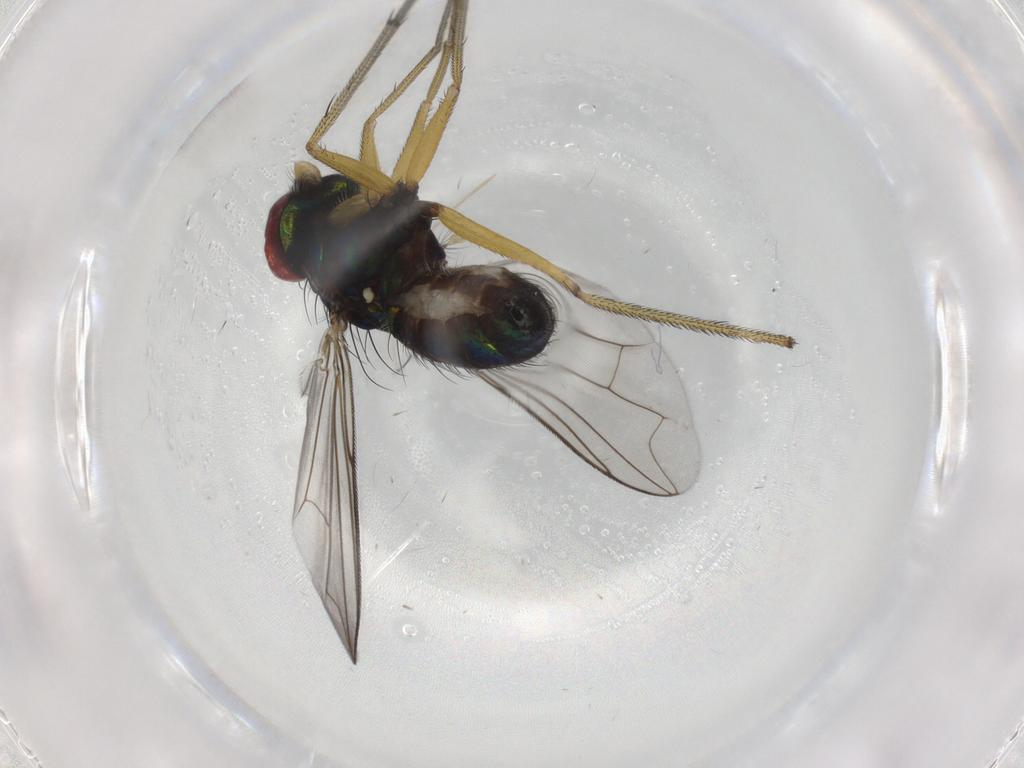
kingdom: Animalia
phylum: Arthropoda
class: Insecta
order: Diptera
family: Dolichopodidae
